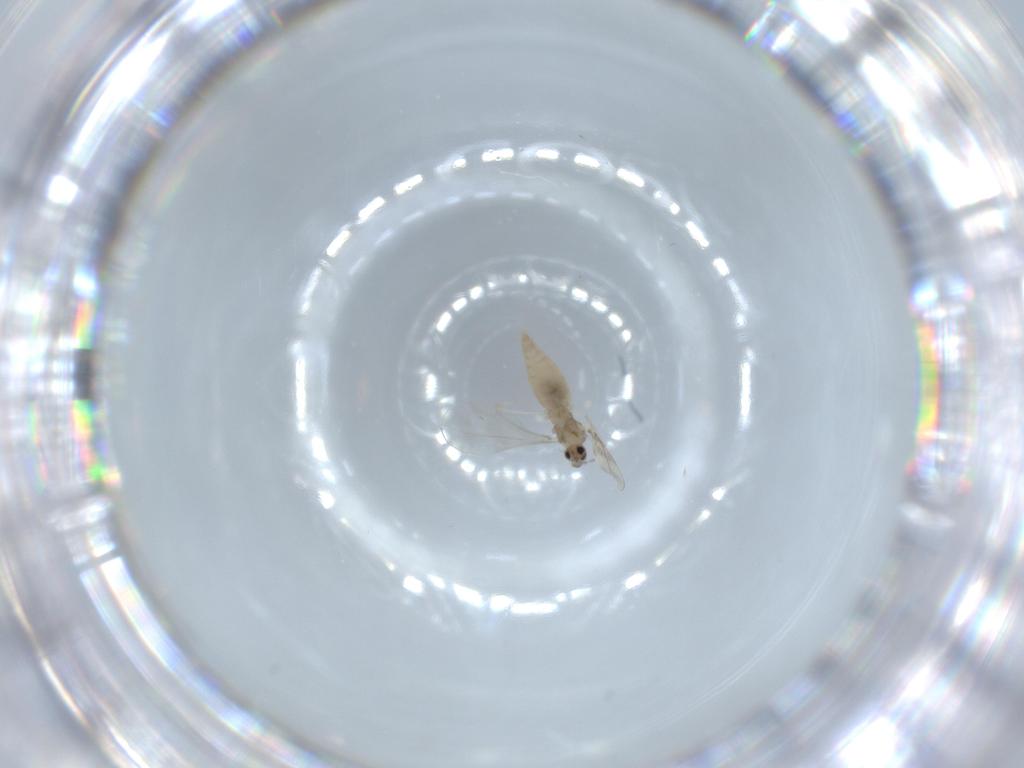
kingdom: Animalia
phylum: Arthropoda
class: Insecta
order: Diptera
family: Cecidomyiidae
